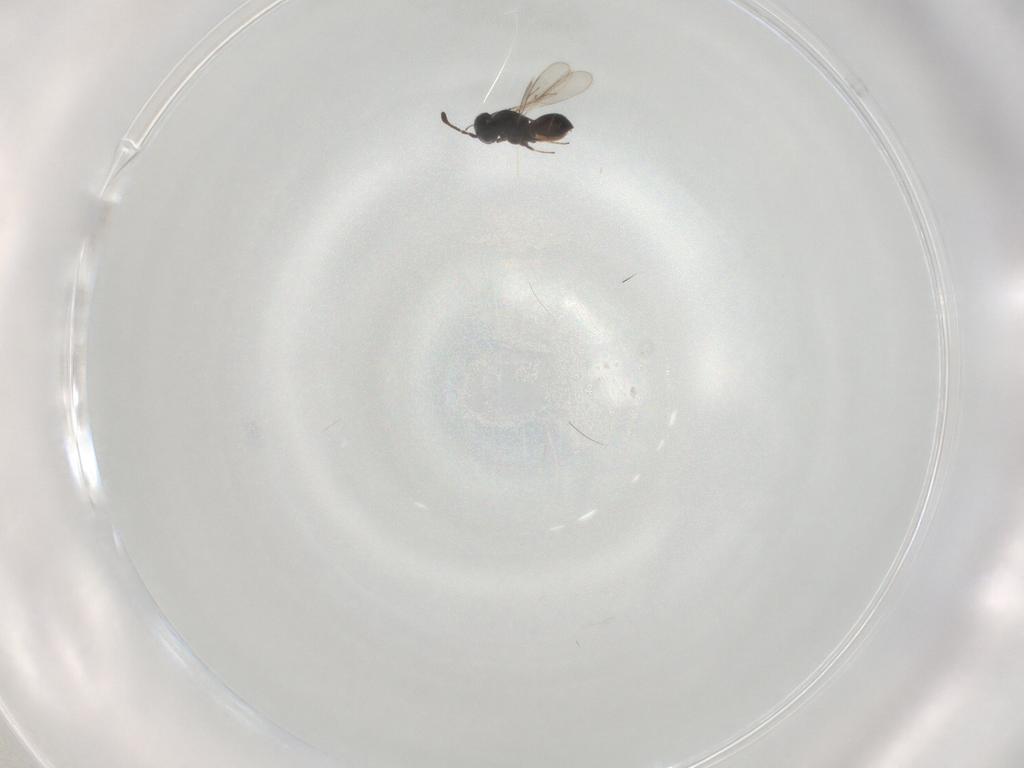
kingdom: Animalia
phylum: Arthropoda
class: Insecta
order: Hymenoptera
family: Scelionidae
